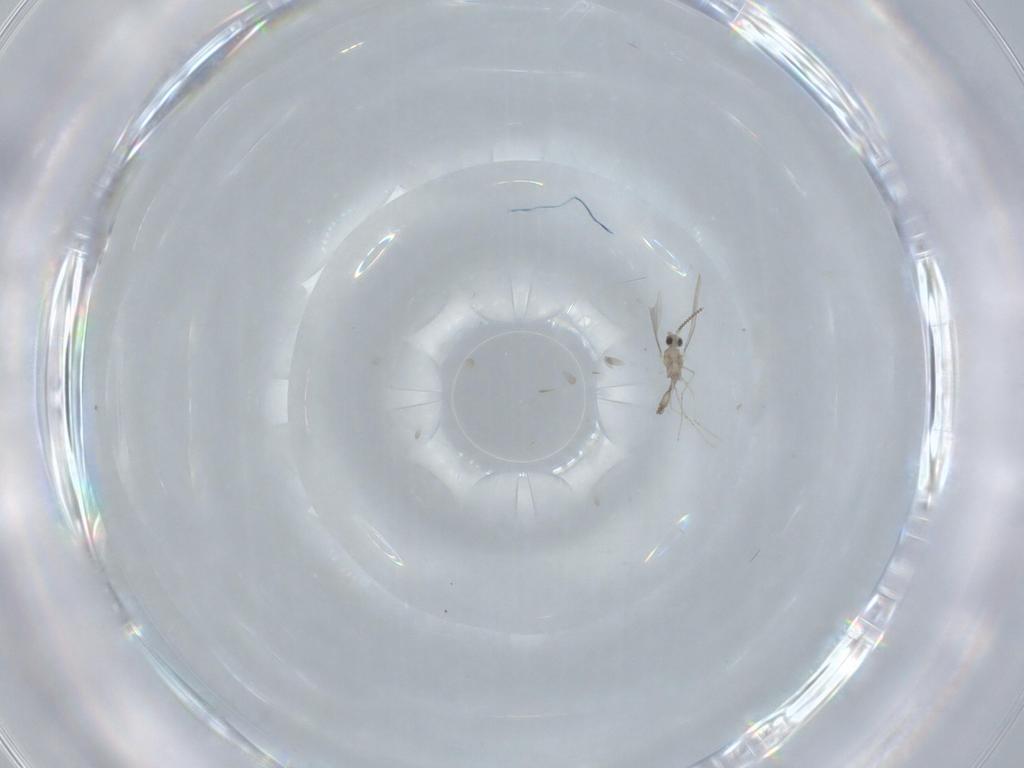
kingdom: Animalia
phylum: Arthropoda
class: Insecta
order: Diptera
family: Cecidomyiidae
